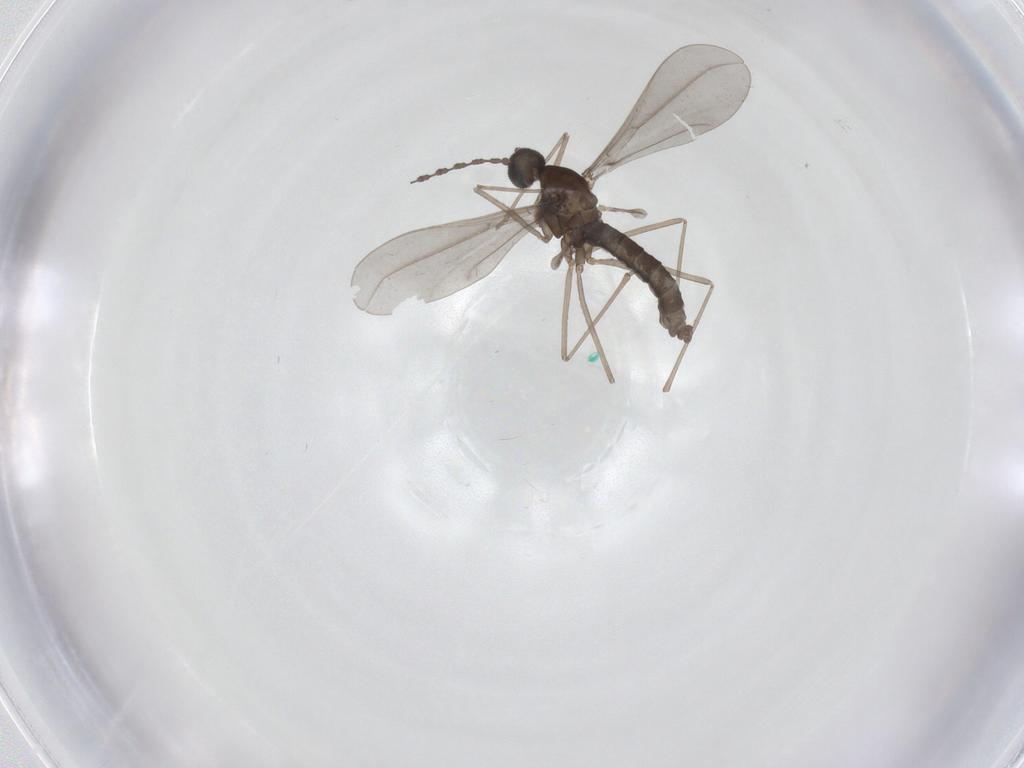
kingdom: Animalia
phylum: Arthropoda
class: Insecta
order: Diptera
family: Cecidomyiidae
